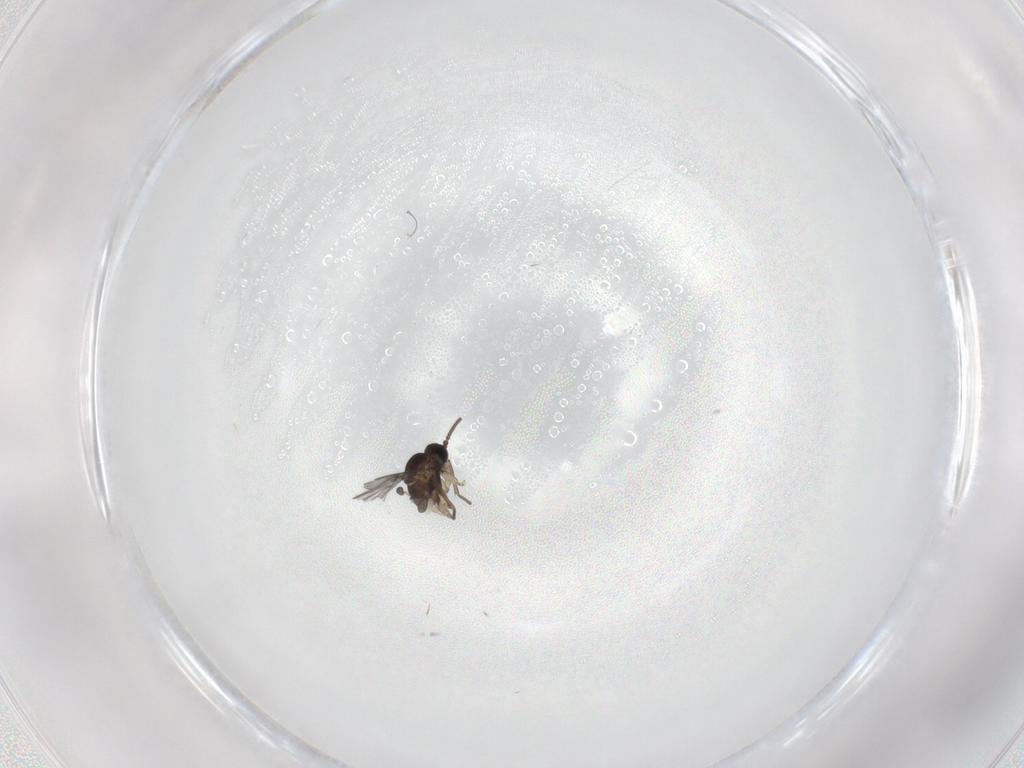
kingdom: Animalia
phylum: Arthropoda
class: Insecta
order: Diptera
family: Sciaridae
